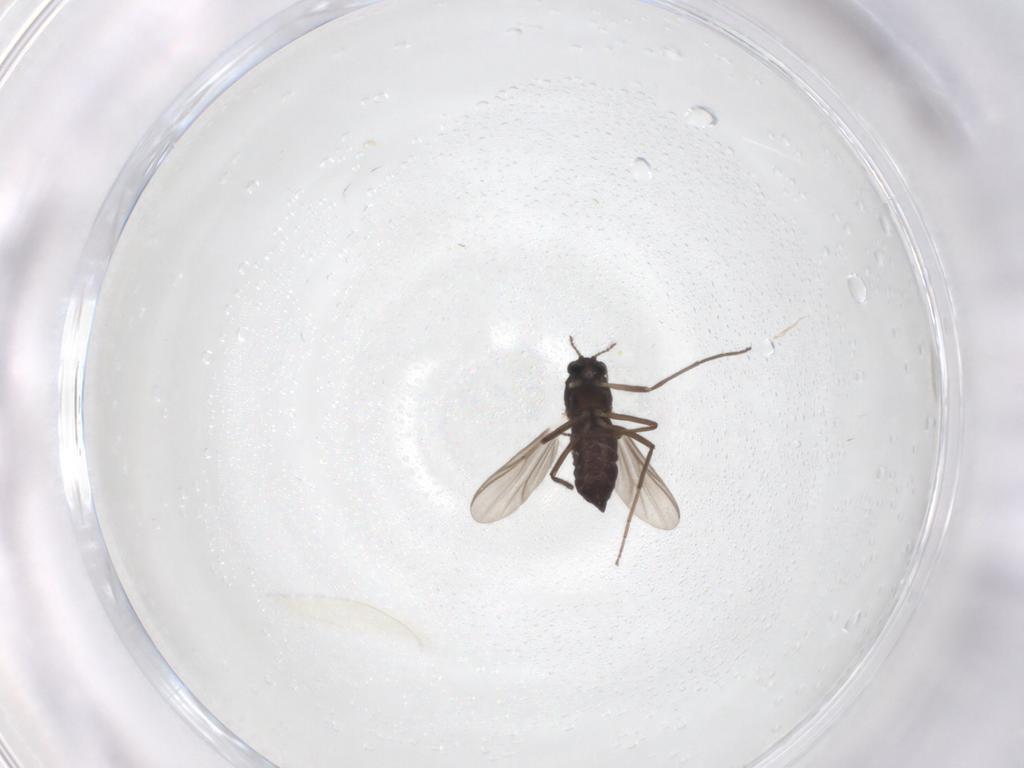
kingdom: Animalia
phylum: Arthropoda
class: Insecta
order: Diptera
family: Chironomidae
